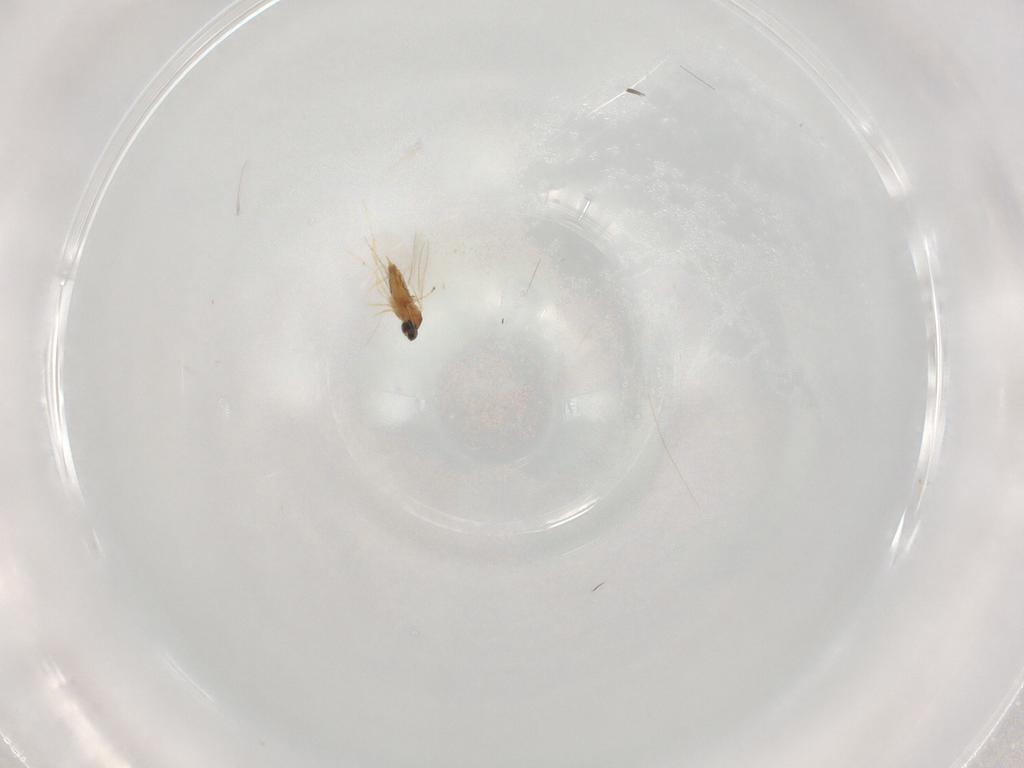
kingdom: Animalia
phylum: Arthropoda
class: Insecta
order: Diptera
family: Cecidomyiidae
